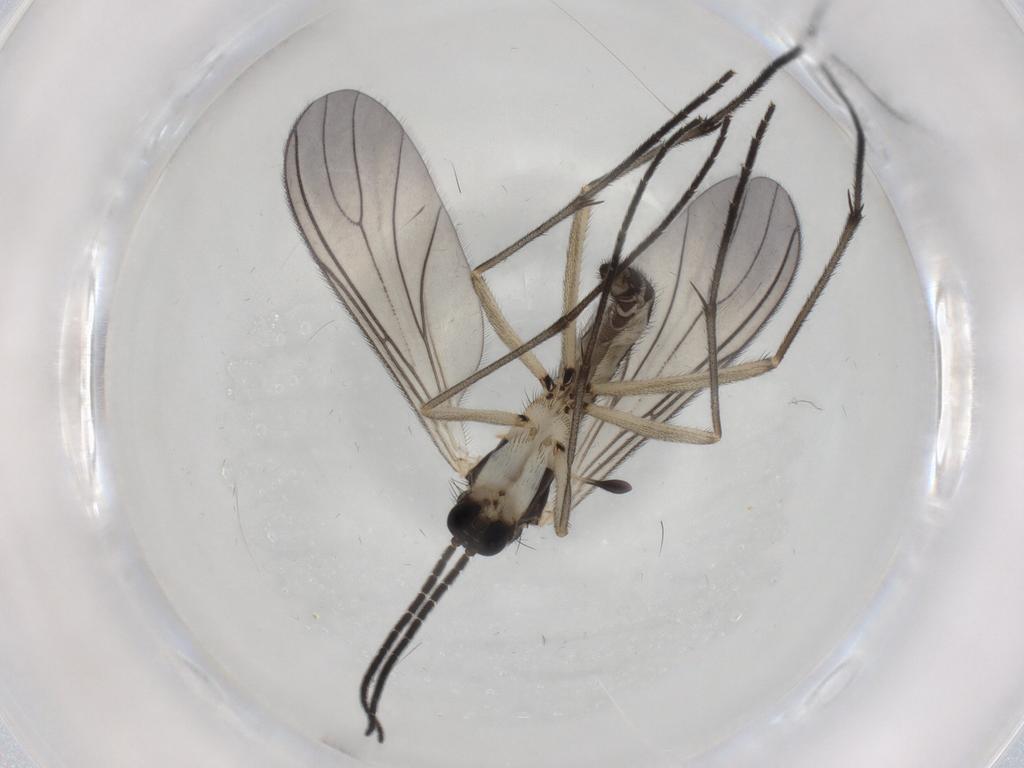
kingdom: Animalia
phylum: Arthropoda
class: Insecta
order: Diptera
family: Sciaridae
